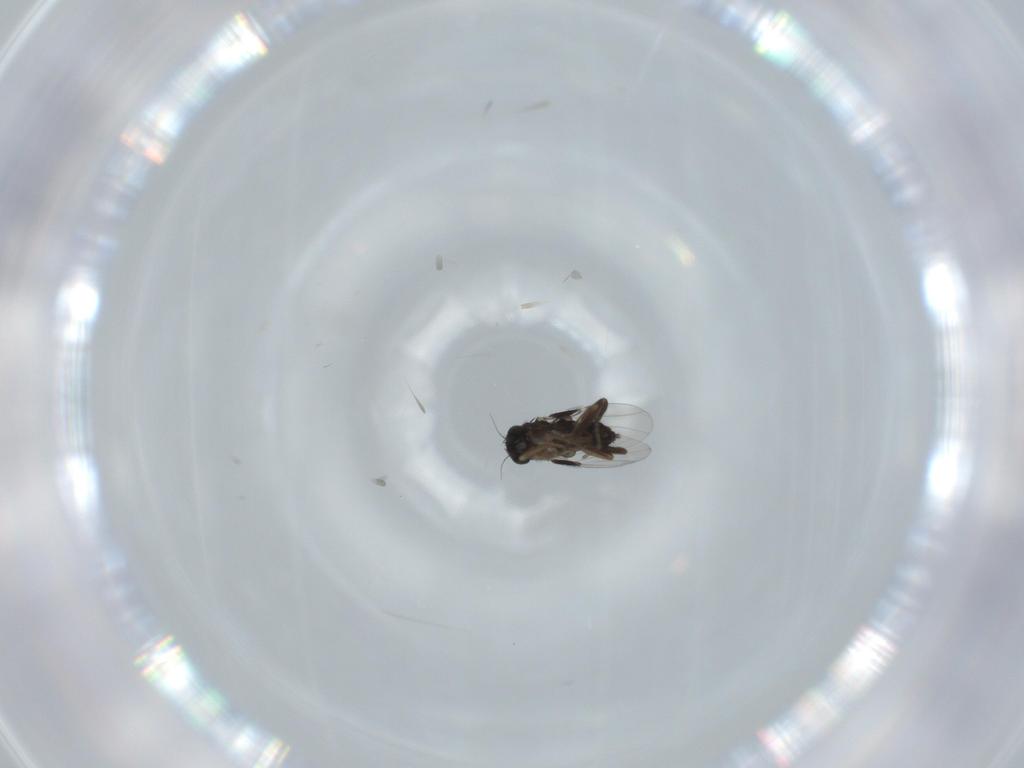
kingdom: Animalia
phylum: Arthropoda
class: Insecta
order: Diptera
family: Phoridae
